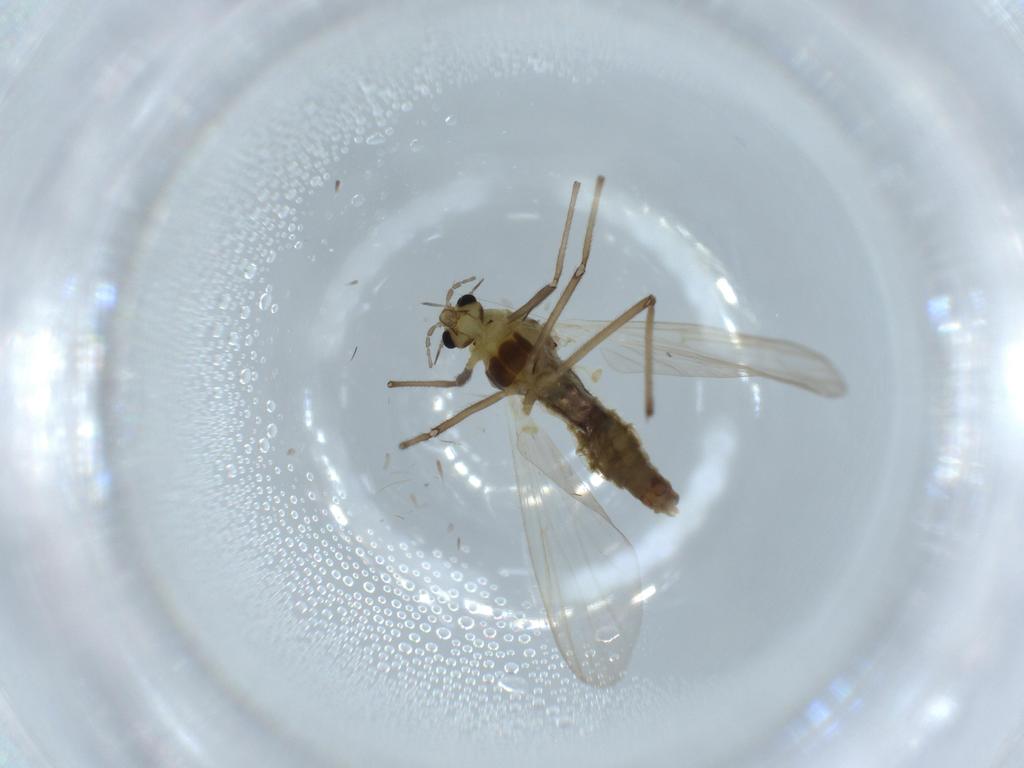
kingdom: Animalia
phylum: Arthropoda
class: Insecta
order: Diptera
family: Chironomidae
